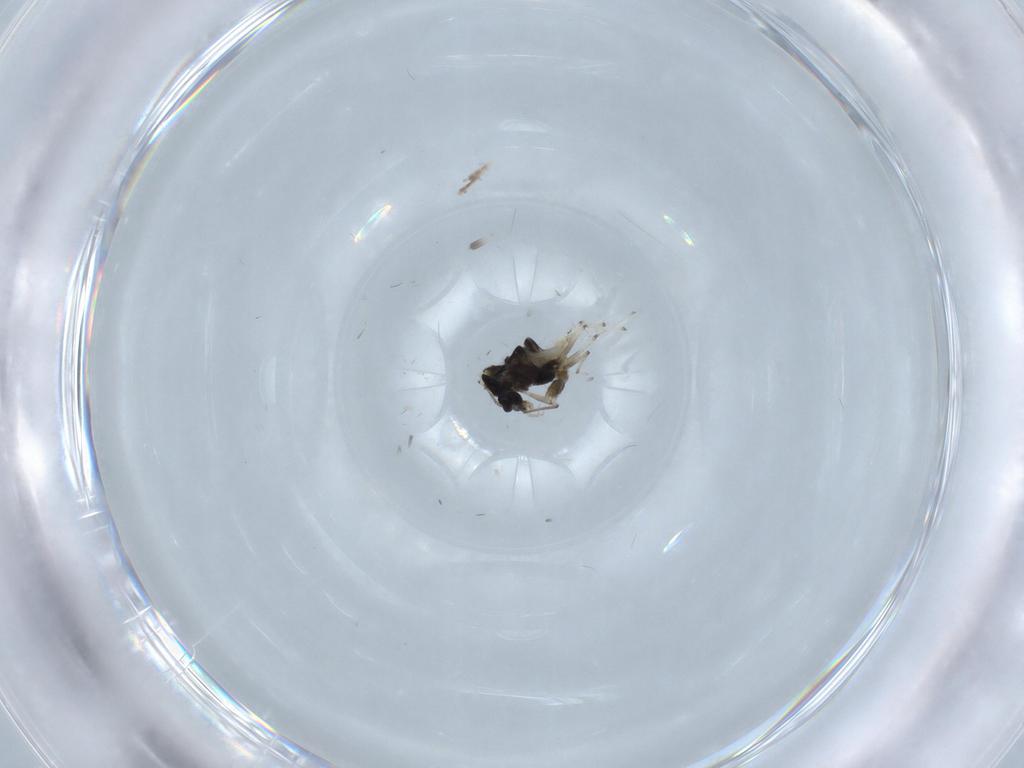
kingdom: Animalia
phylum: Arthropoda
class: Insecta
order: Diptera
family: Chironomidae
